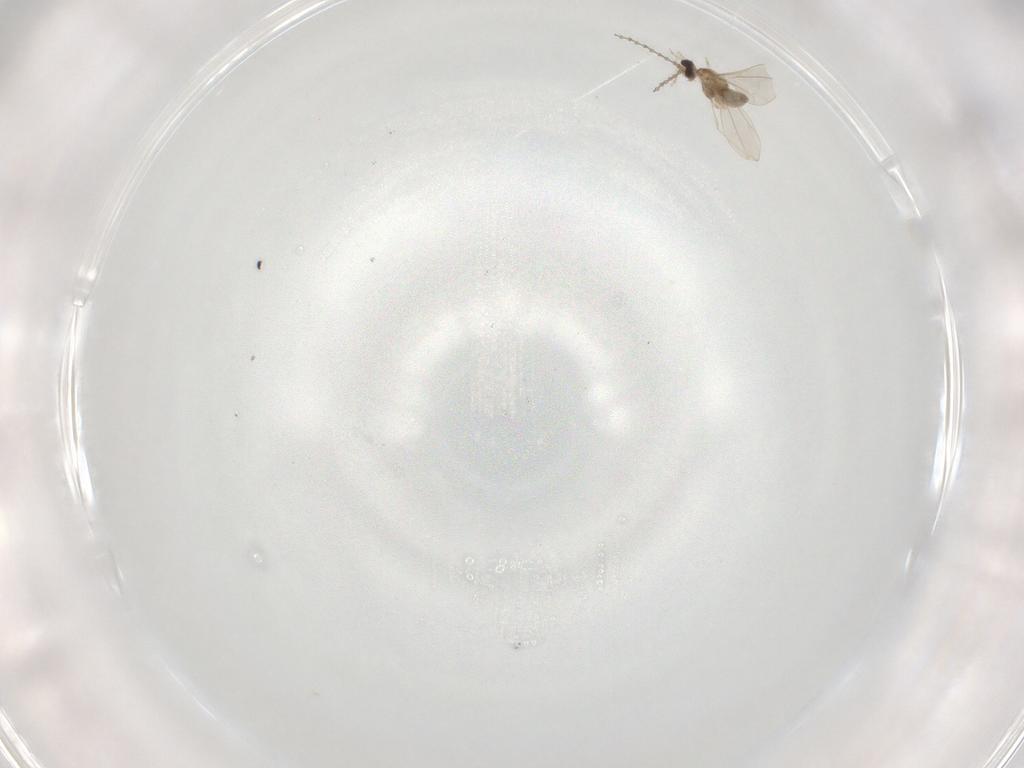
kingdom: Animalia
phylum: Arthropoda
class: Insecta
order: Diptera
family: Cecidomyiidae
